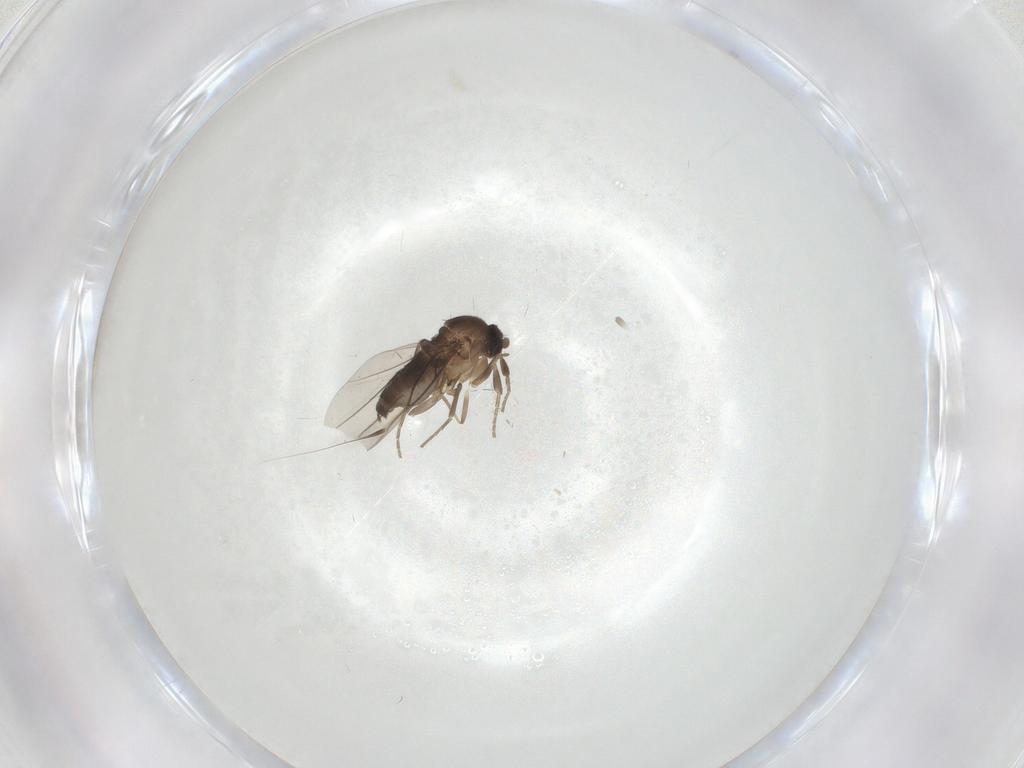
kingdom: Animalia
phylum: Arthropoda
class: Insecta
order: Diptera
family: Phoridae
